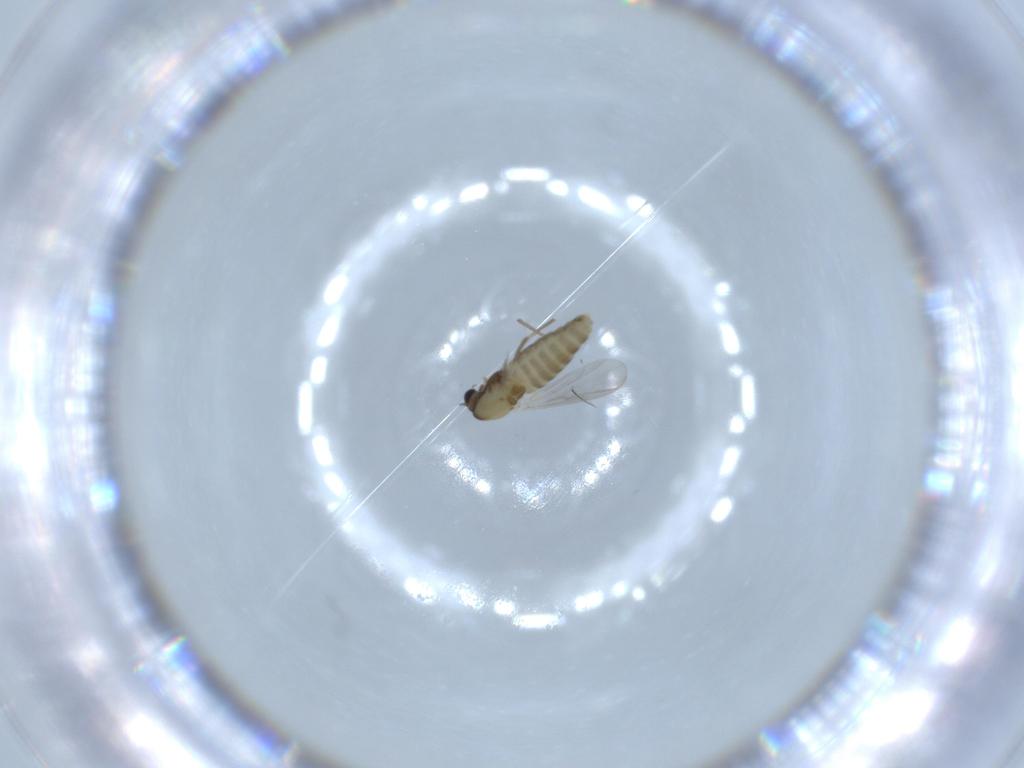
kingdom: Animalia
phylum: Arthropoda
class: Insecta
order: Diptera
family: Chironomidae
